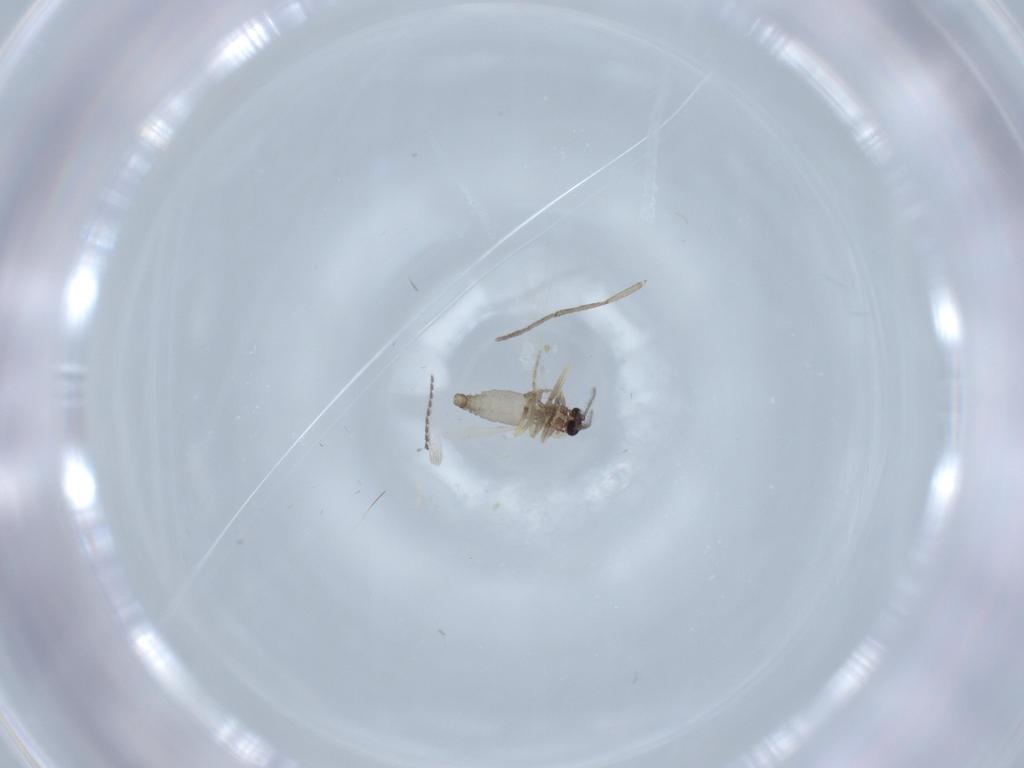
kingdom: Animalia
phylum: Arthropoda
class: Insecta
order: Diptera
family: Ceratopogonidae
